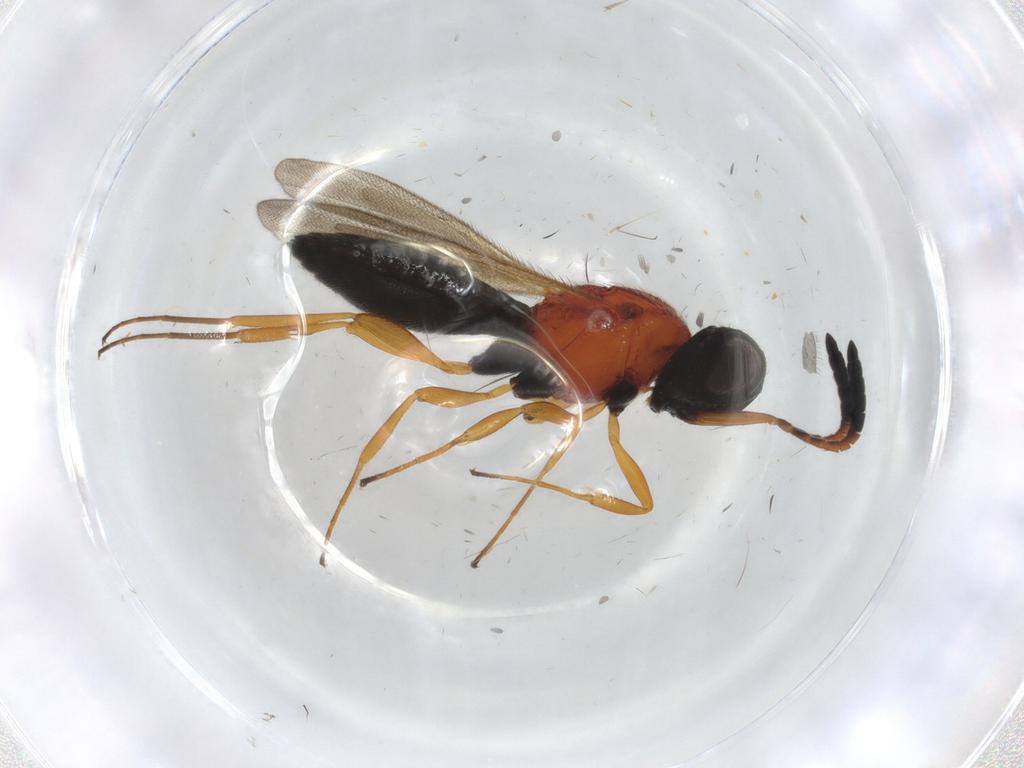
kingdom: Animalia
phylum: Arthropoda
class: Insecta
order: Hymenoptera
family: Scelionidae
